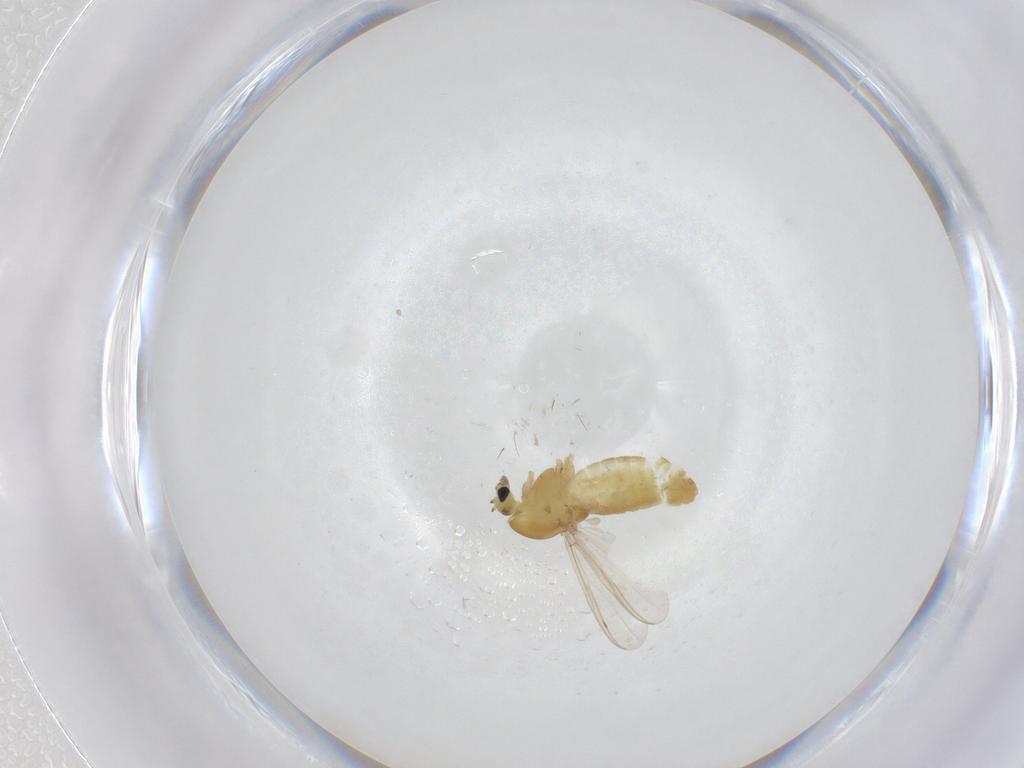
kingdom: Animalia
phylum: Arthropoda
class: Insecta
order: Diptera
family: Chironomidae
